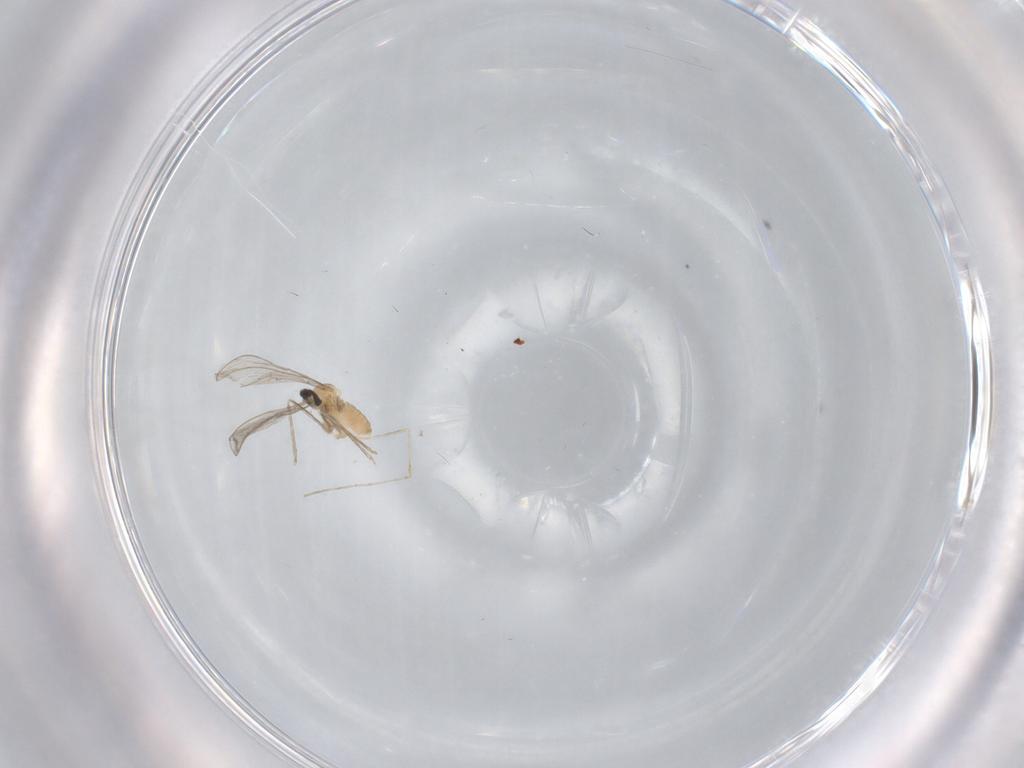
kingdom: Animalia
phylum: Arthropoda
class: Insecta
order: Diptera
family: Cecidomyiidae
